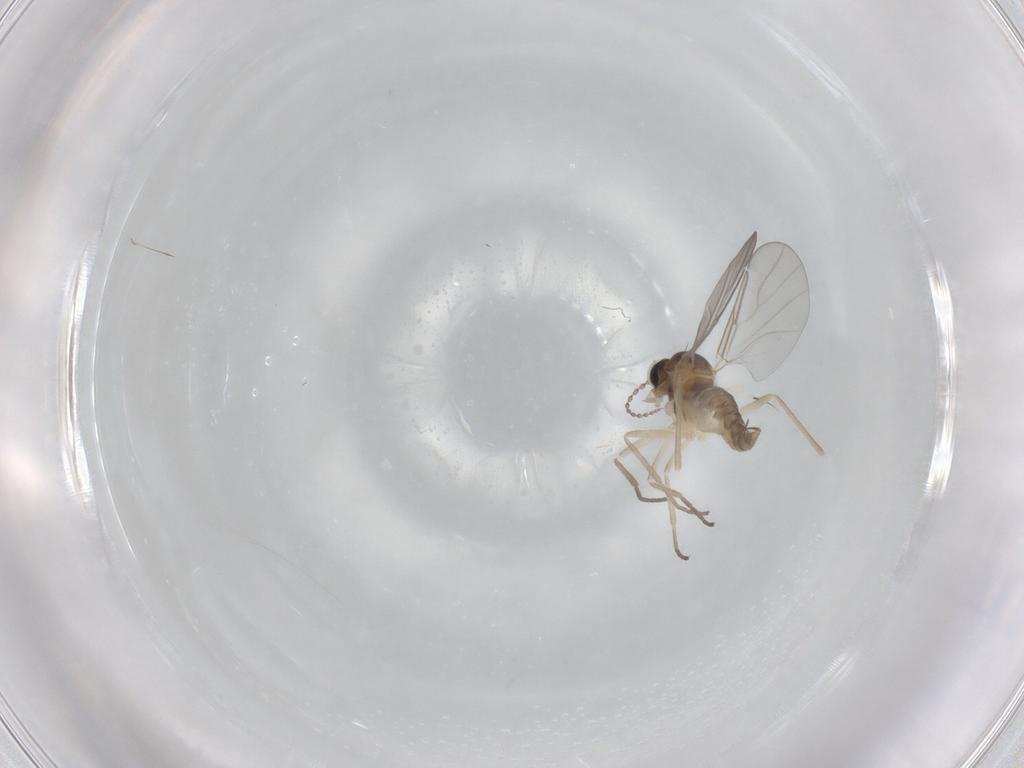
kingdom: Animalia
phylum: Arthropoda
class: Insecta
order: Diptera
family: Cecidomyiidae
